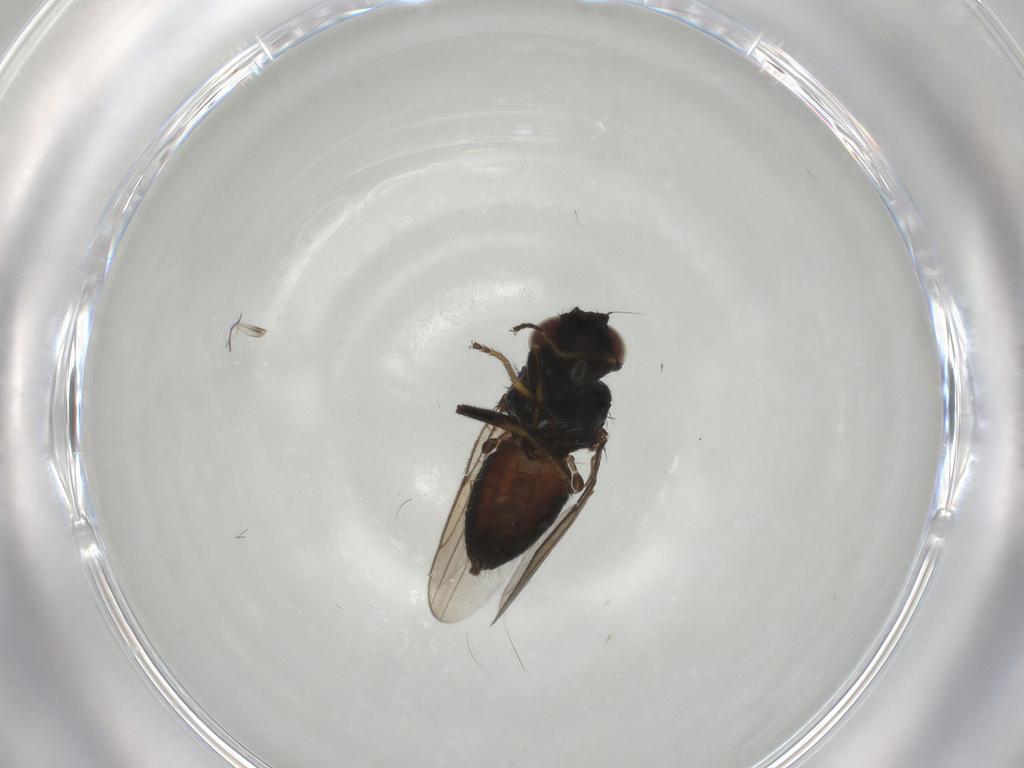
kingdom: Animalia
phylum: Arthropoda
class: Insecta
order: Diptera
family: Chloropidae
